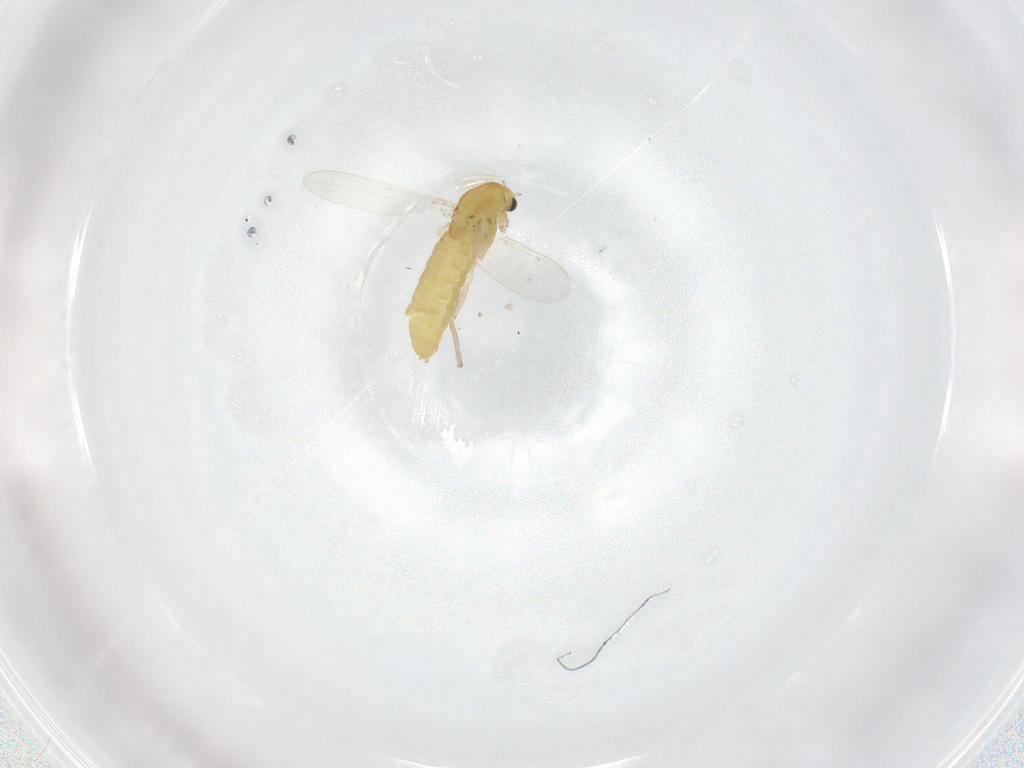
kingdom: Animalia
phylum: Arthropoda
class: Insecta
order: Diptera
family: Chironomidae
